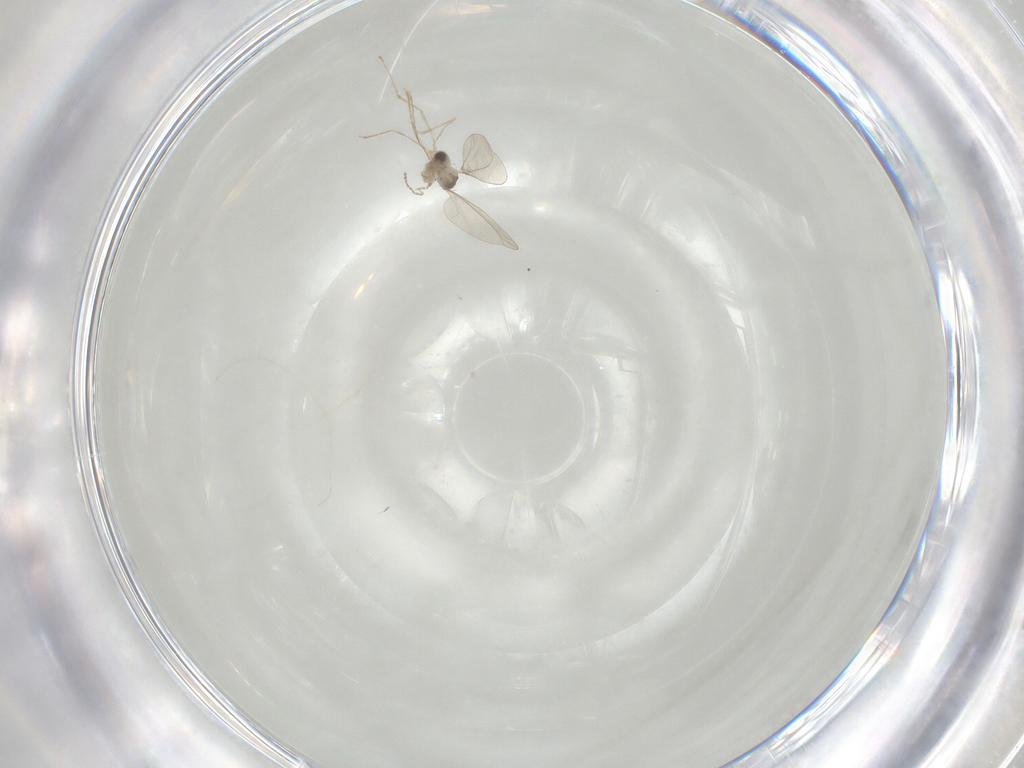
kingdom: Animalia
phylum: Arthropoda
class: Insecta
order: Diptera
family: Cecidomyiidae
